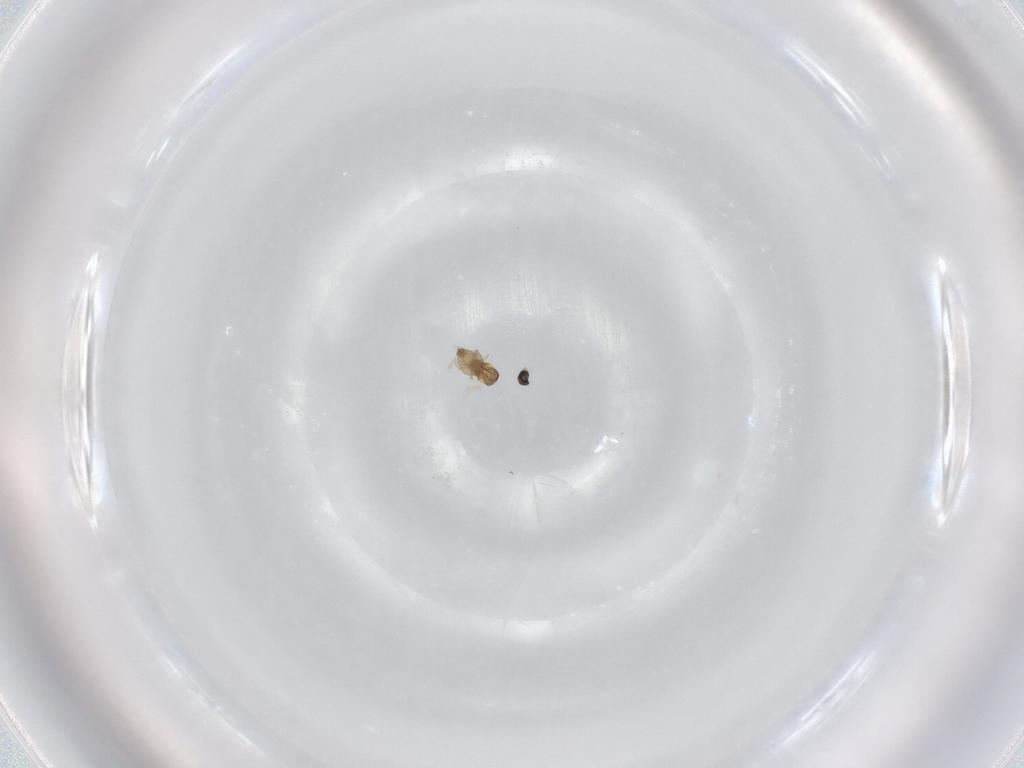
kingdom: Animalia
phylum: Arthropoda
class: Insecta
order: Diptera
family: Cecidomyiidae
